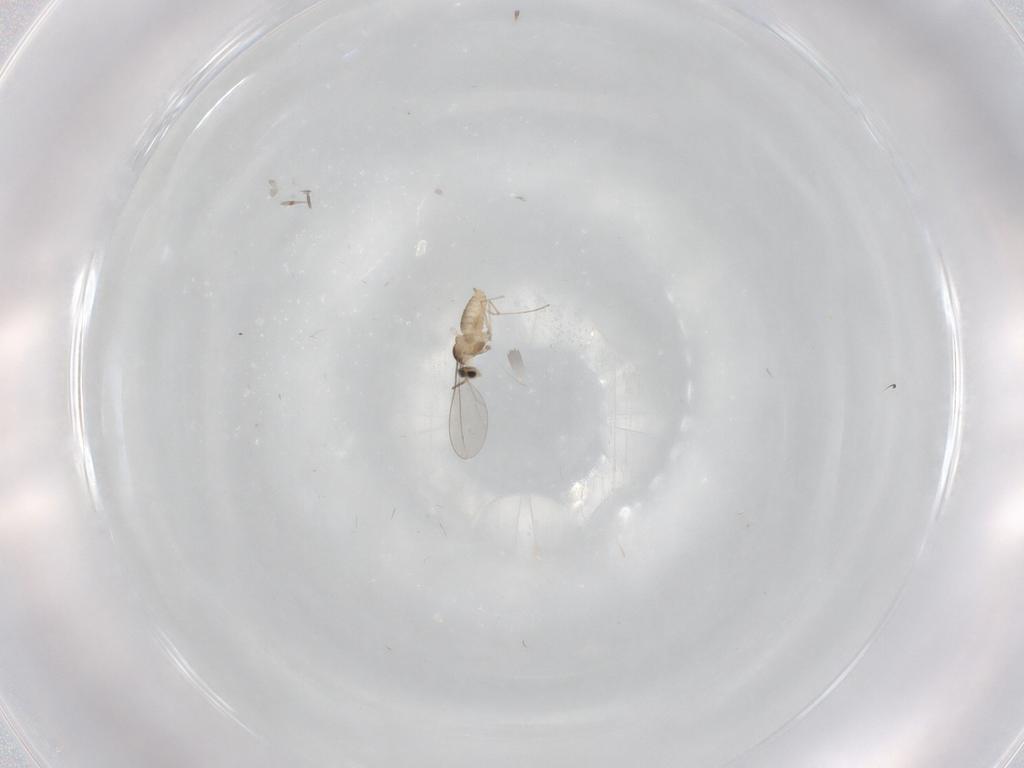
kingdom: Animalia
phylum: Arthropoda
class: Insecta
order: Diptera
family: Cecidomyiidae
